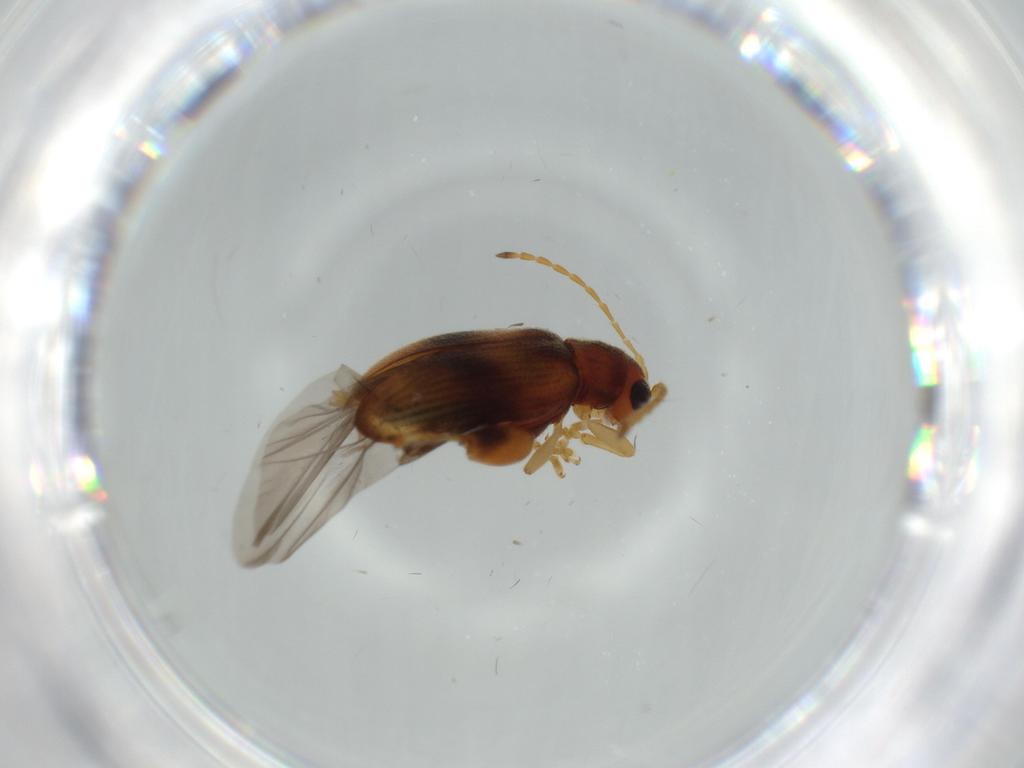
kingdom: Animalia
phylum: Arthropoda
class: Insecta
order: Coleoptera
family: Chrysomelidae
